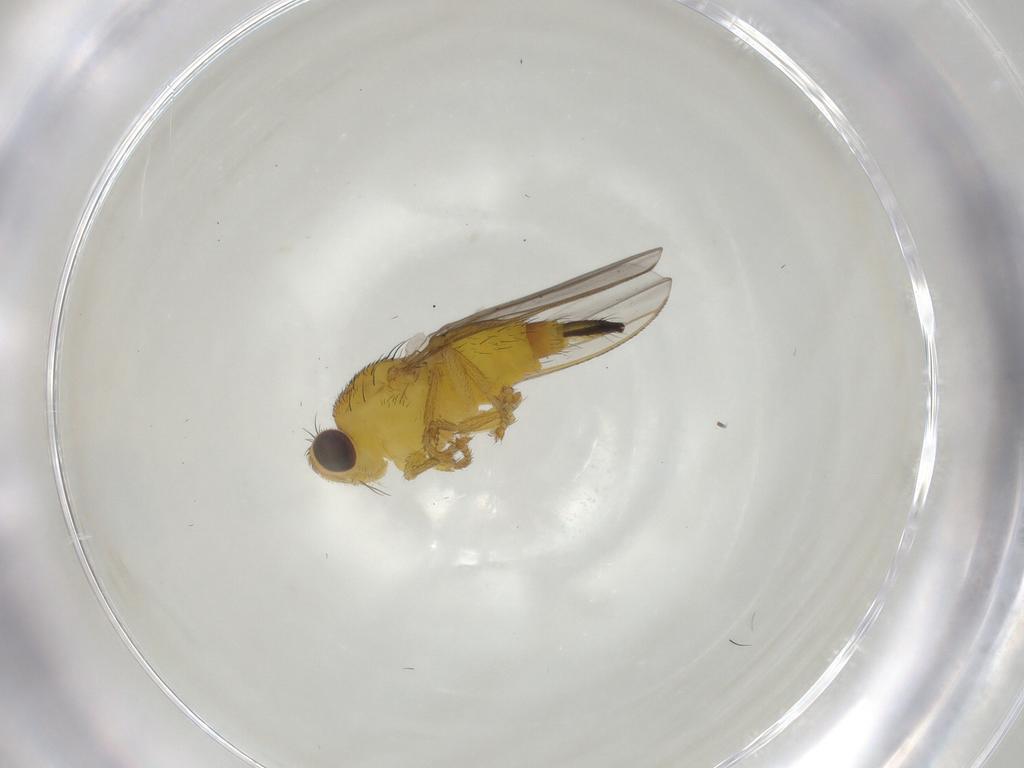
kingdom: Animalia
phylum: Arthropoda
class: Insecta
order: Diptera
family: Fergusoninidae
